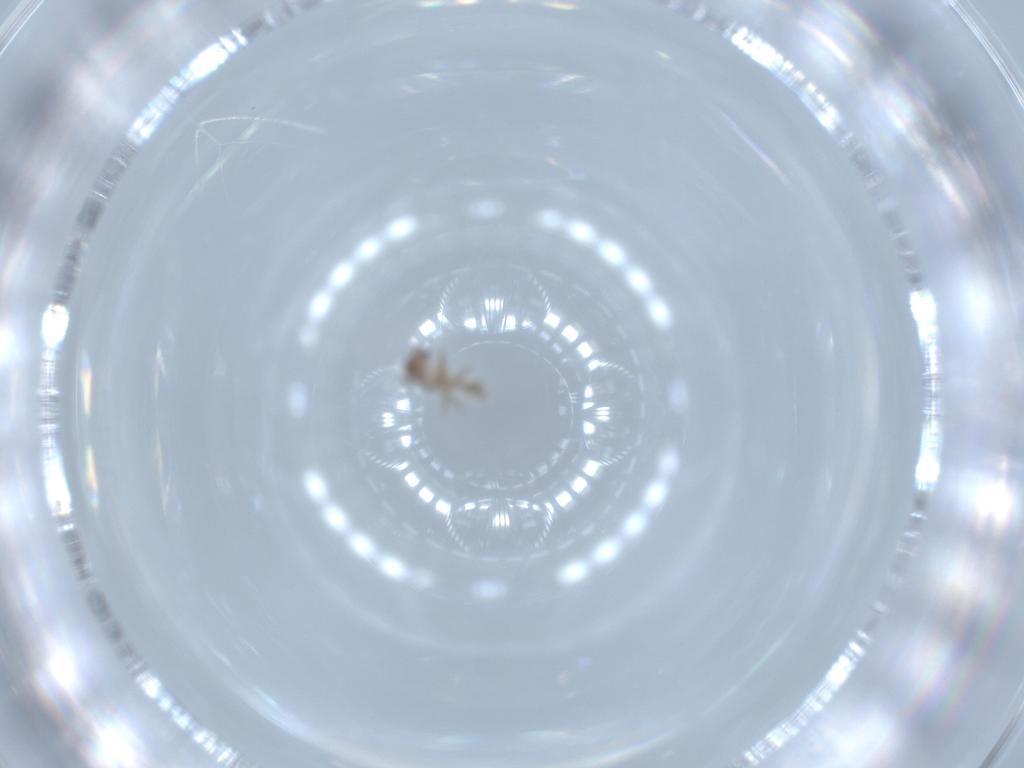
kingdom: Animalia
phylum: Arthropoda
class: Insecta
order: Psocodea
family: Lepidopsocidae
